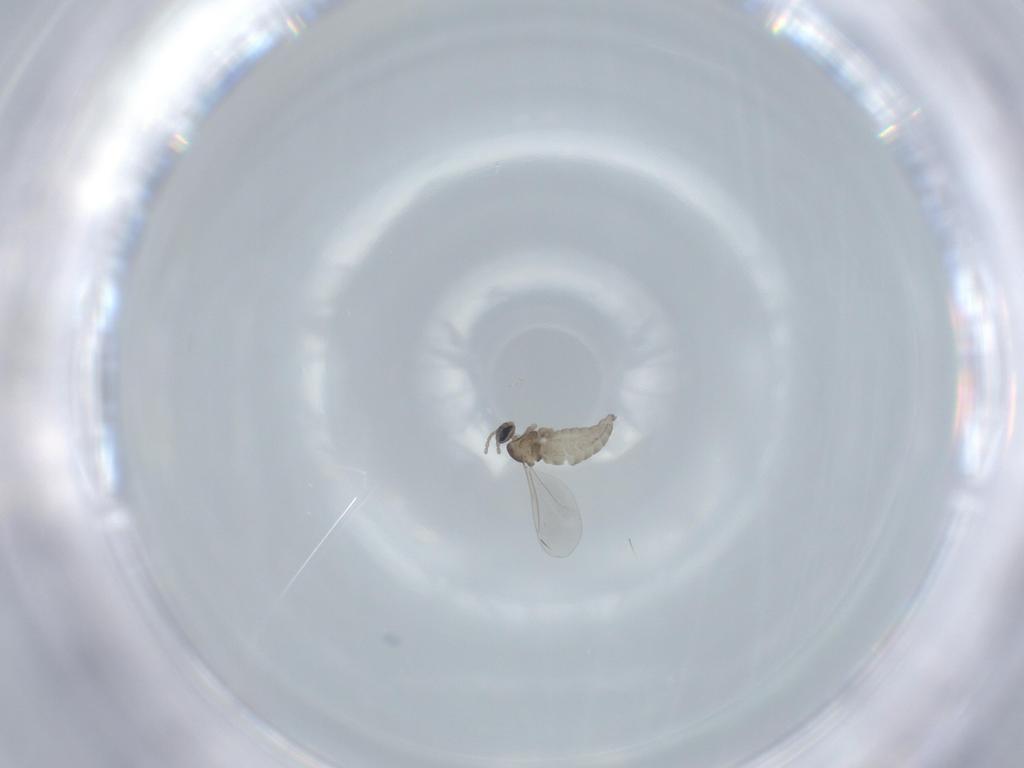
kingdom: Animalia
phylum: Arthropoda
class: Insecta
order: Diptera
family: Cecidomyiidae
